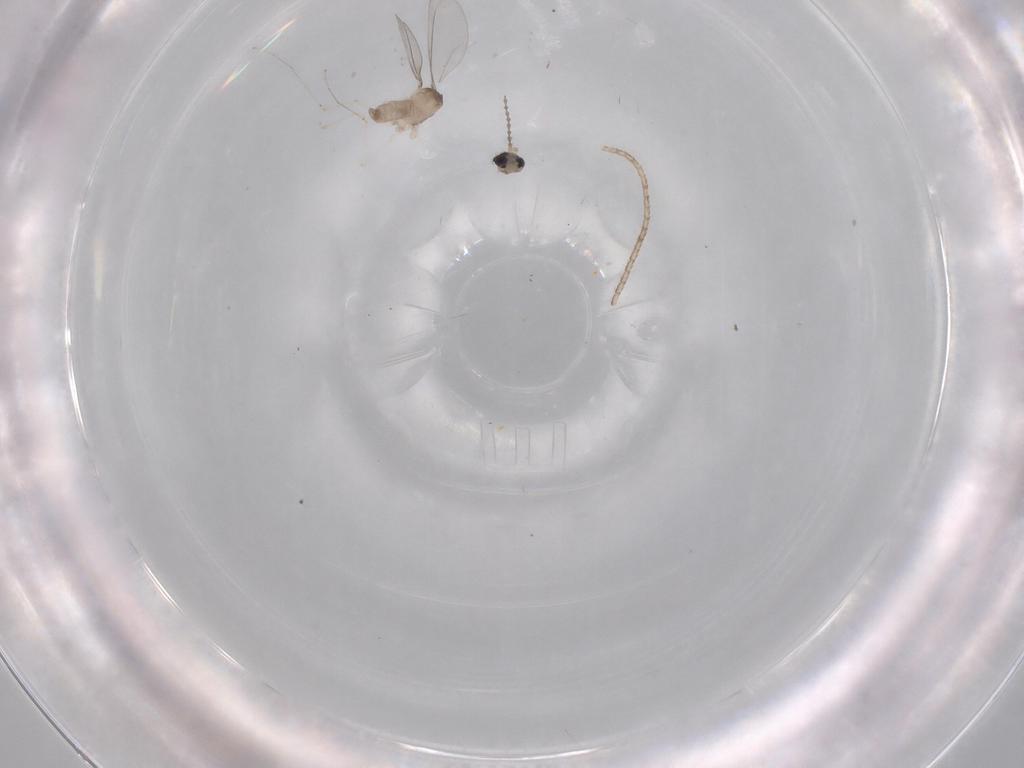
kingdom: Animalia
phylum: Arthropoda
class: Insecta
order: Diptera
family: Cecidomyiidae
